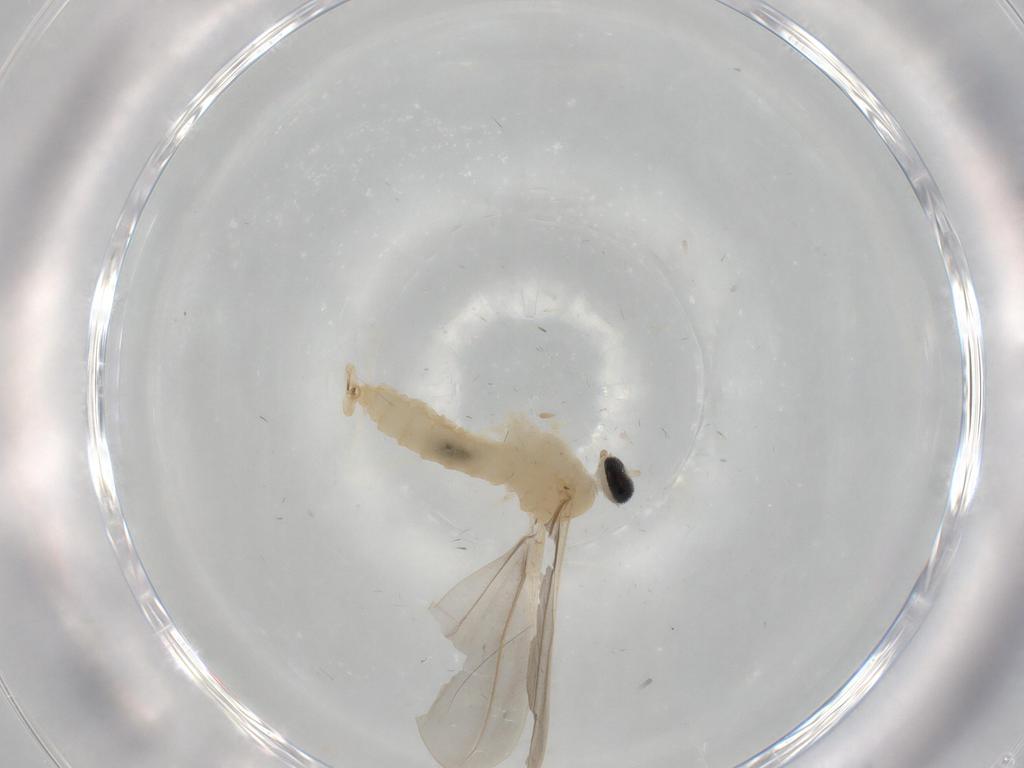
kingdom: Animalia
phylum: Arthropoda
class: Insecta
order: Diptera
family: Cecidomyiidae
